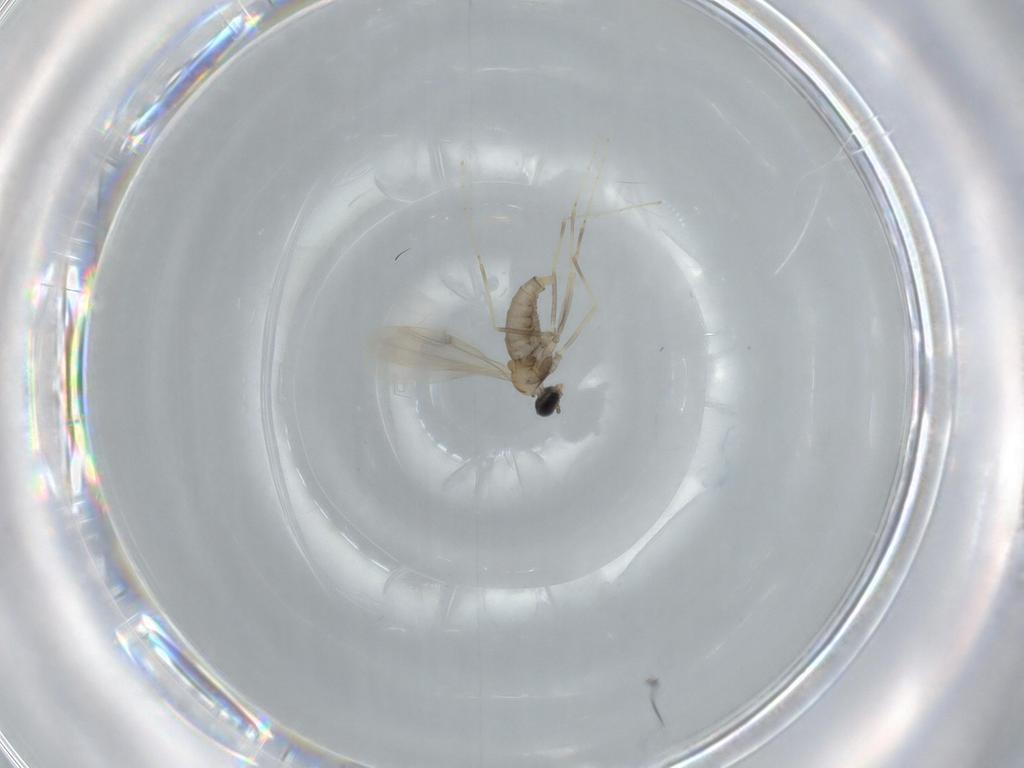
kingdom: Animalia
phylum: Arthropoda
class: Insecta
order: Diptera
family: Cecidomyiidae
